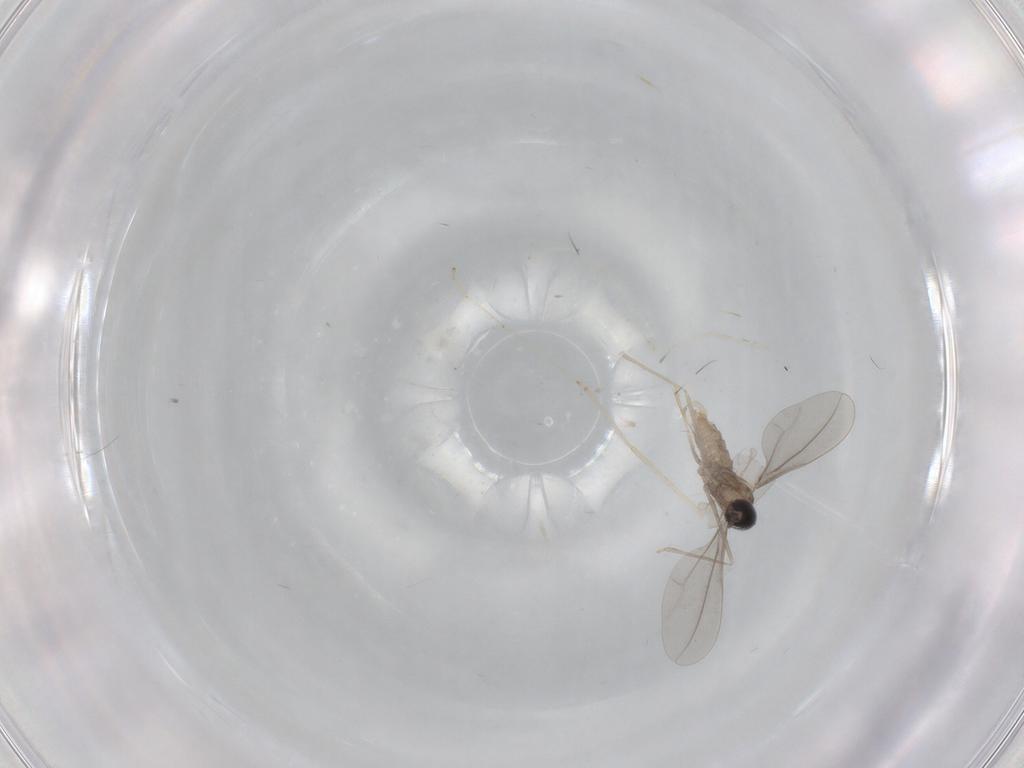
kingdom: Animalia
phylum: Arthropoda
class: Insecta
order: Diptera
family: Cecidomyiidae
